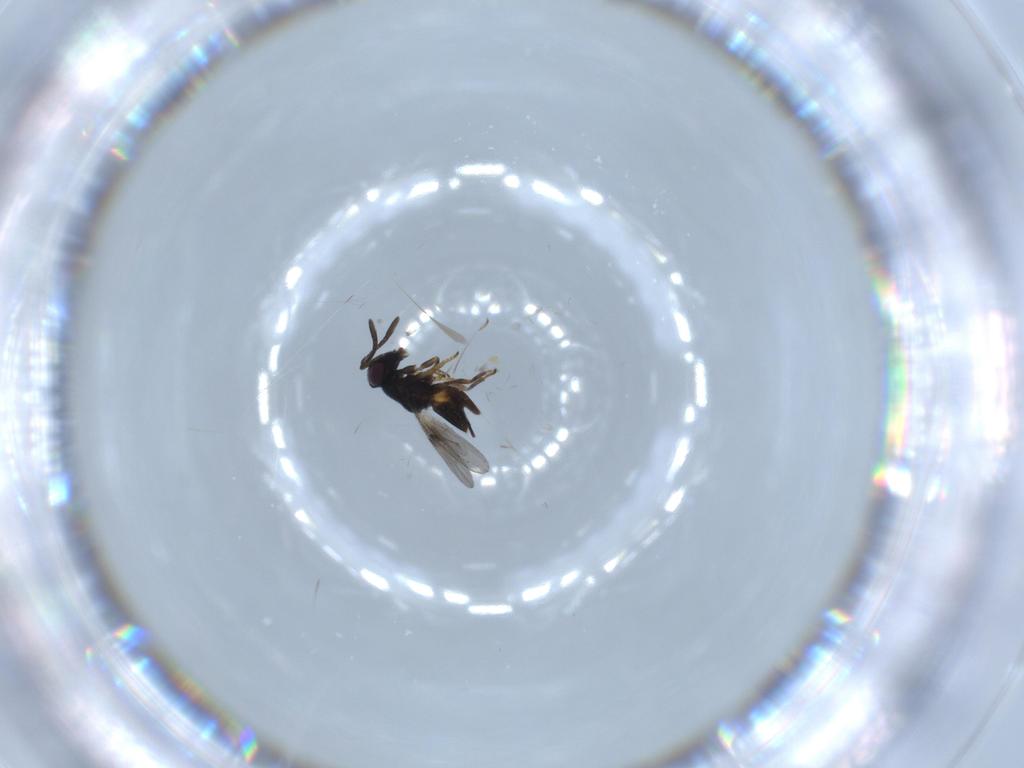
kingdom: Animalia
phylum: Arthropoda
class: Insecta
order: Hymenoptera
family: Encyrtidae
